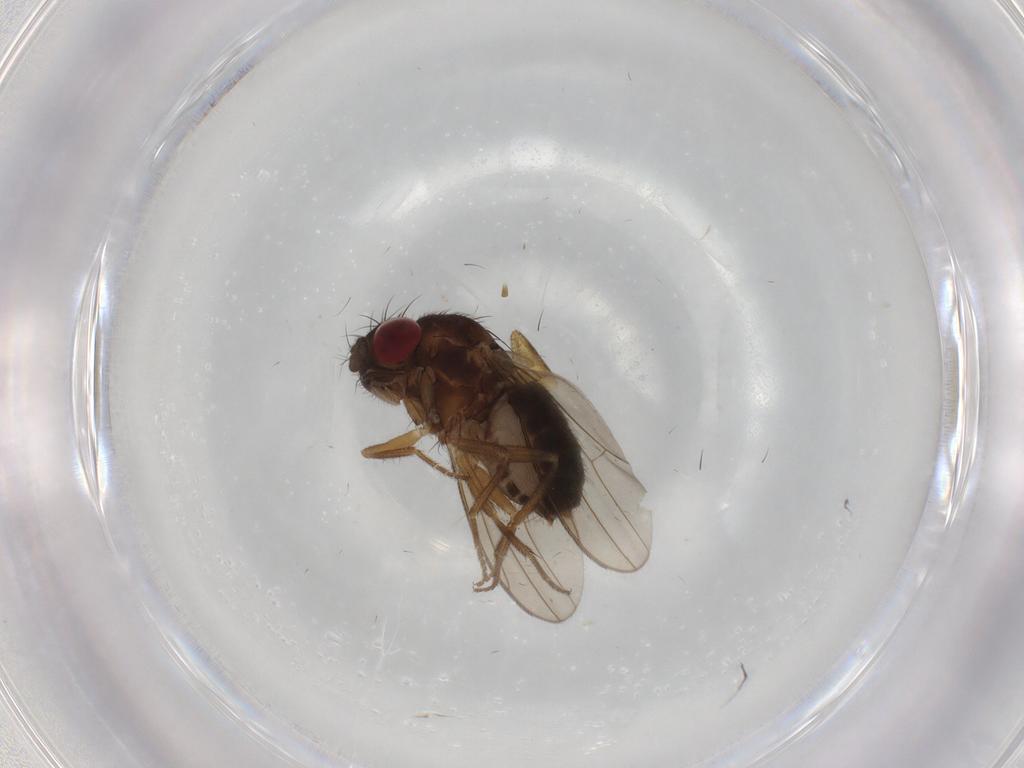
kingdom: Animalia
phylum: Arthropoda
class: Insecta
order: Diptera
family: Drosophilidae
